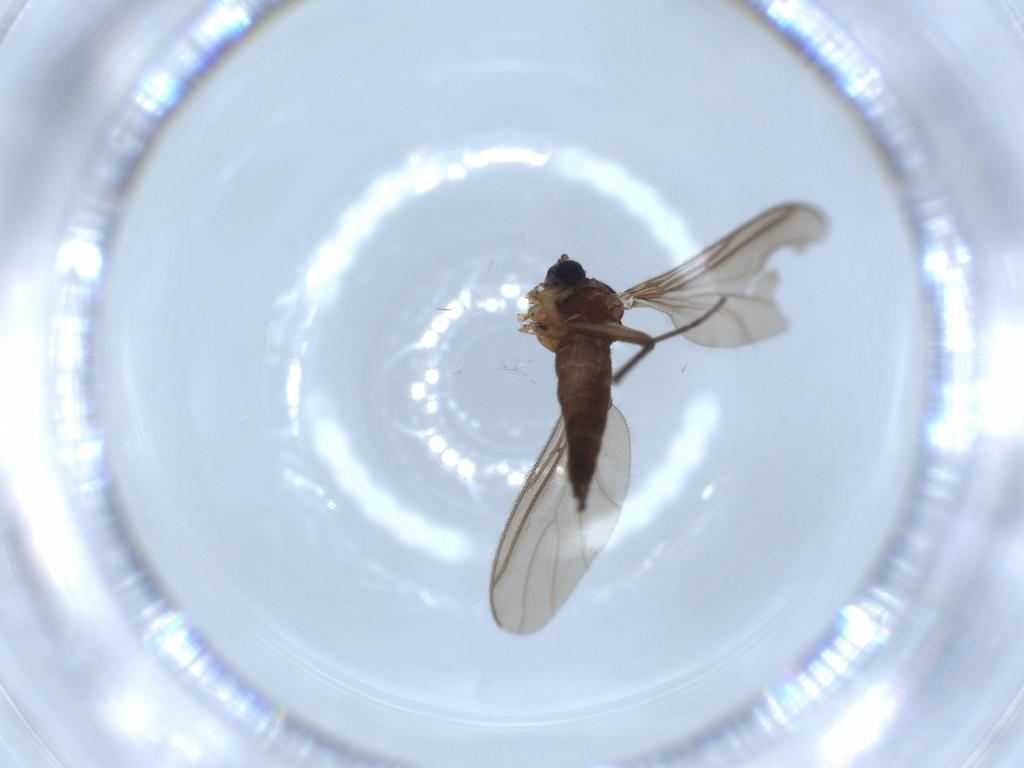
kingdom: Animalia
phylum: Arthropoda
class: Insecta
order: Diptera
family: Sciaridae
